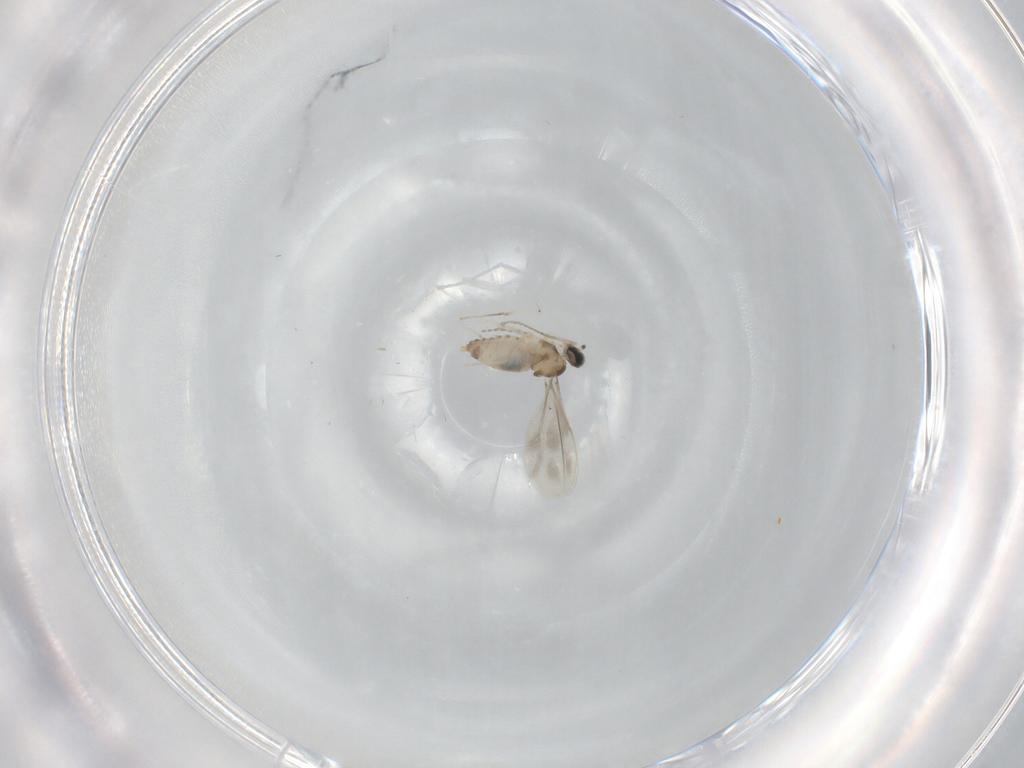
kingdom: Animalia
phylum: Arthropoda
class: Insecta
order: Diptera
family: Cecidomyiidae
